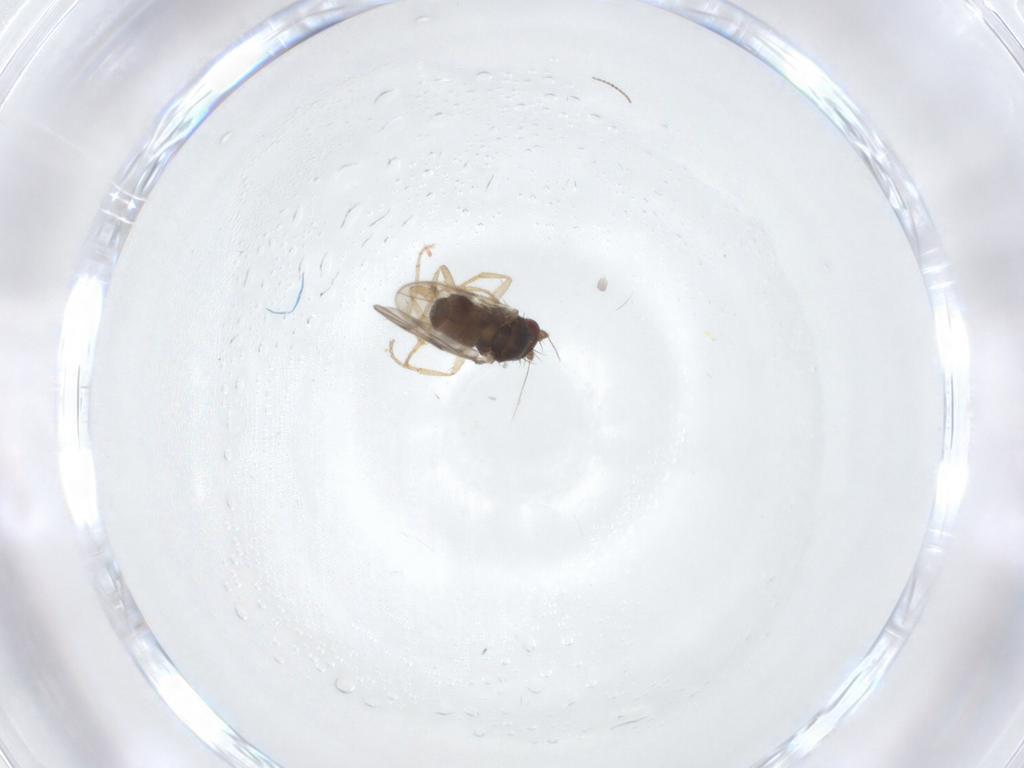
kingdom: Animalia
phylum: Arthropoda
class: Insecta
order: Diptera
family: Sphaeroceridae
